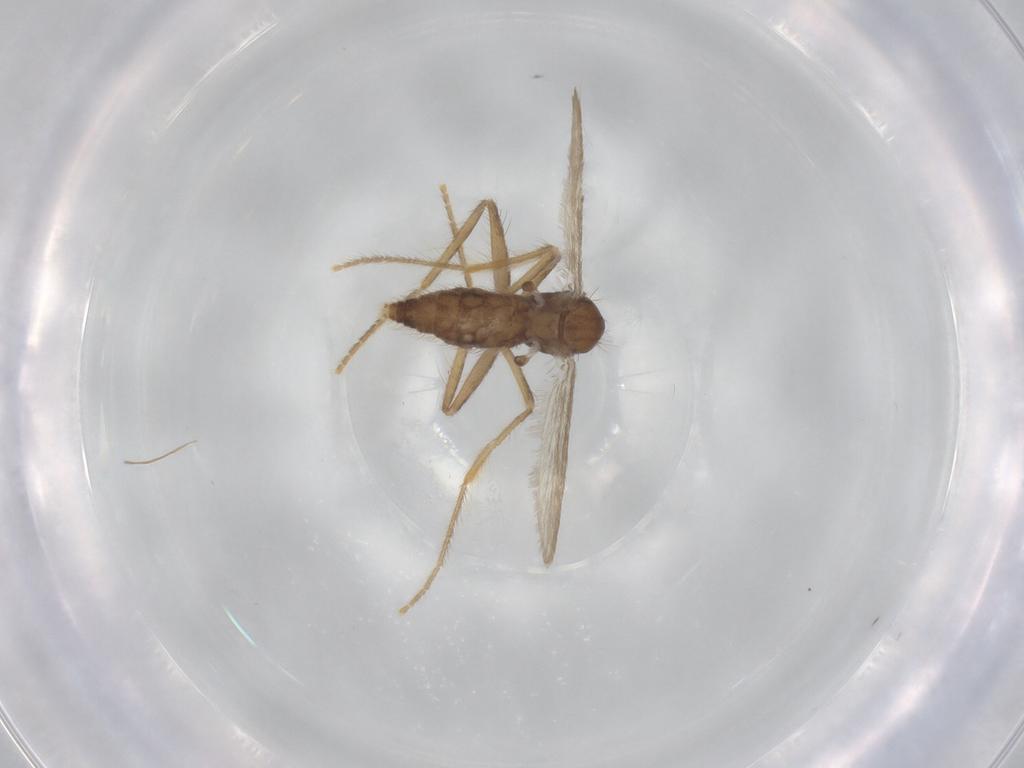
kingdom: Animalia
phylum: Arthropoda
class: Insecta
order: Diptera
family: Psychodidae
